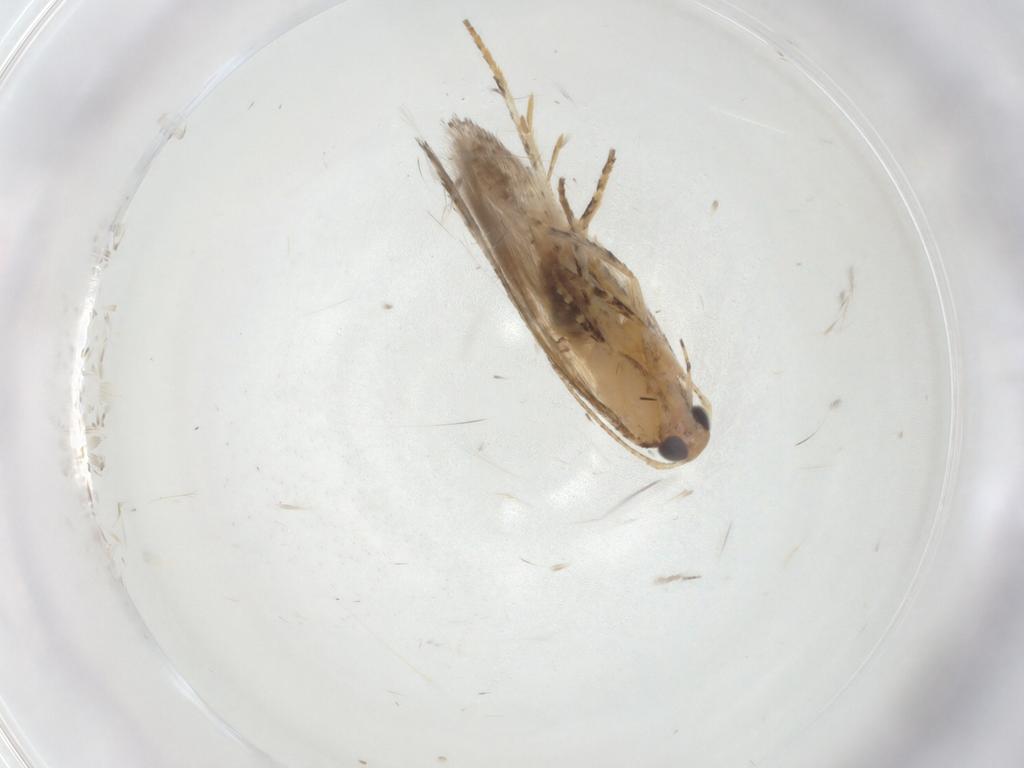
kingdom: Animalia
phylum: Arthropoda
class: Insecta
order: Lepidoptera
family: Gelechiidae
